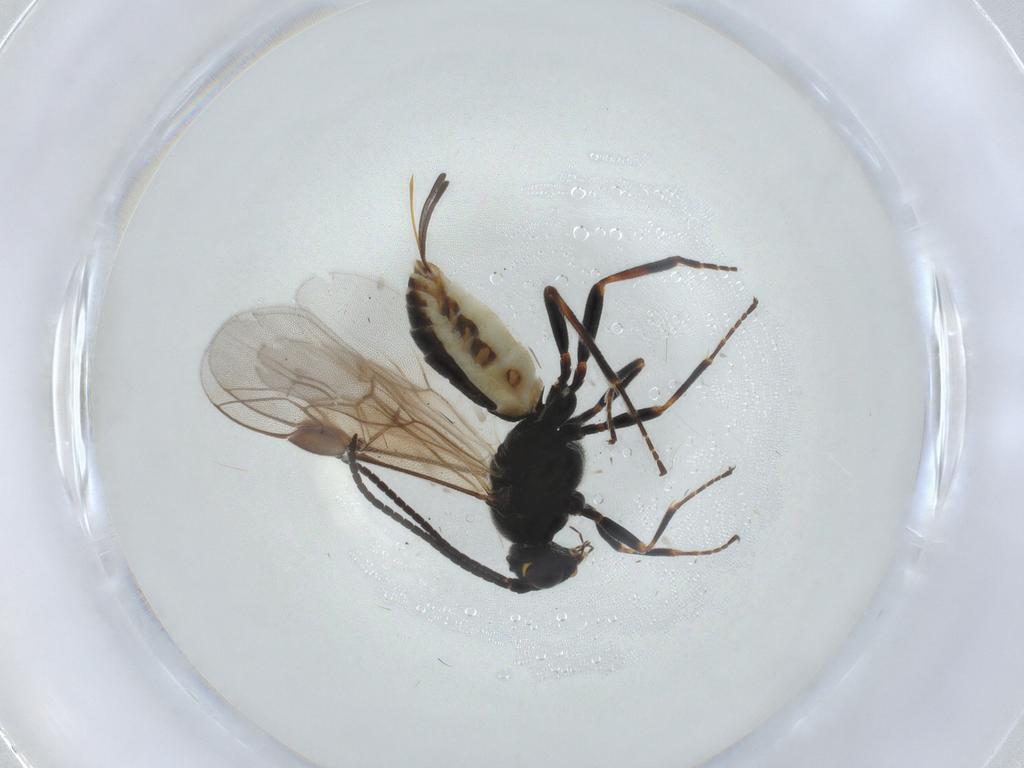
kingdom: Animalia
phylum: Arthropoda
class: Insecta
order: Hymenoptera
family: Braconidae
